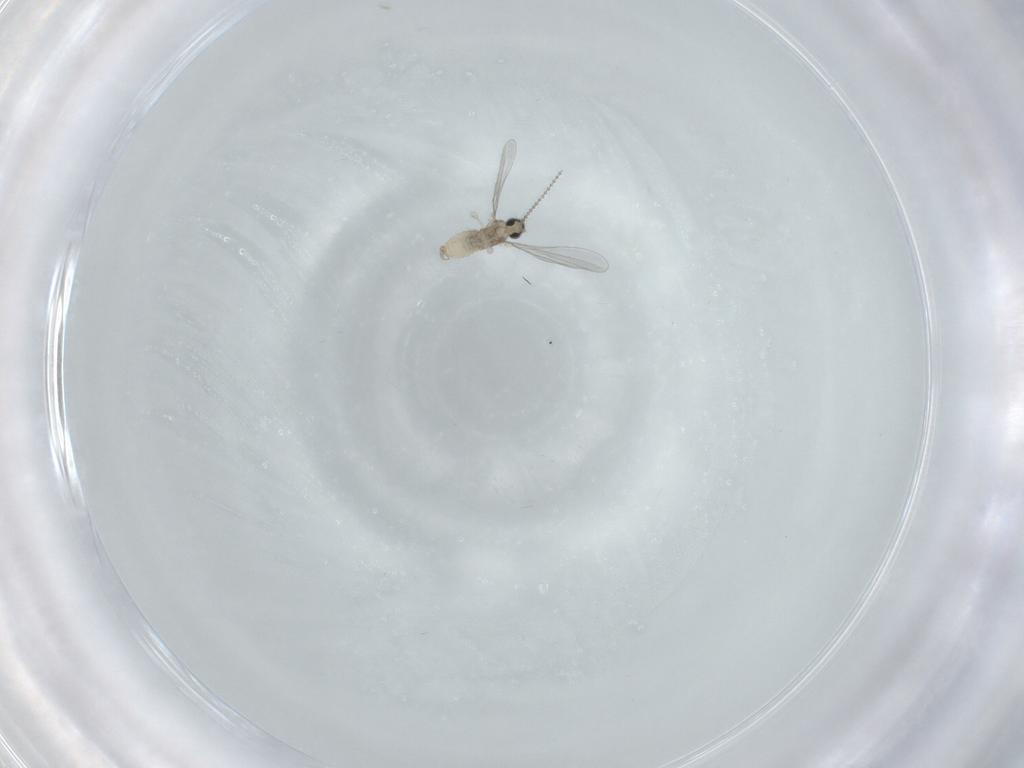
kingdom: Animalia
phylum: Arthropoda
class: Insecta
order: Diptera
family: Cecidomyiidae
